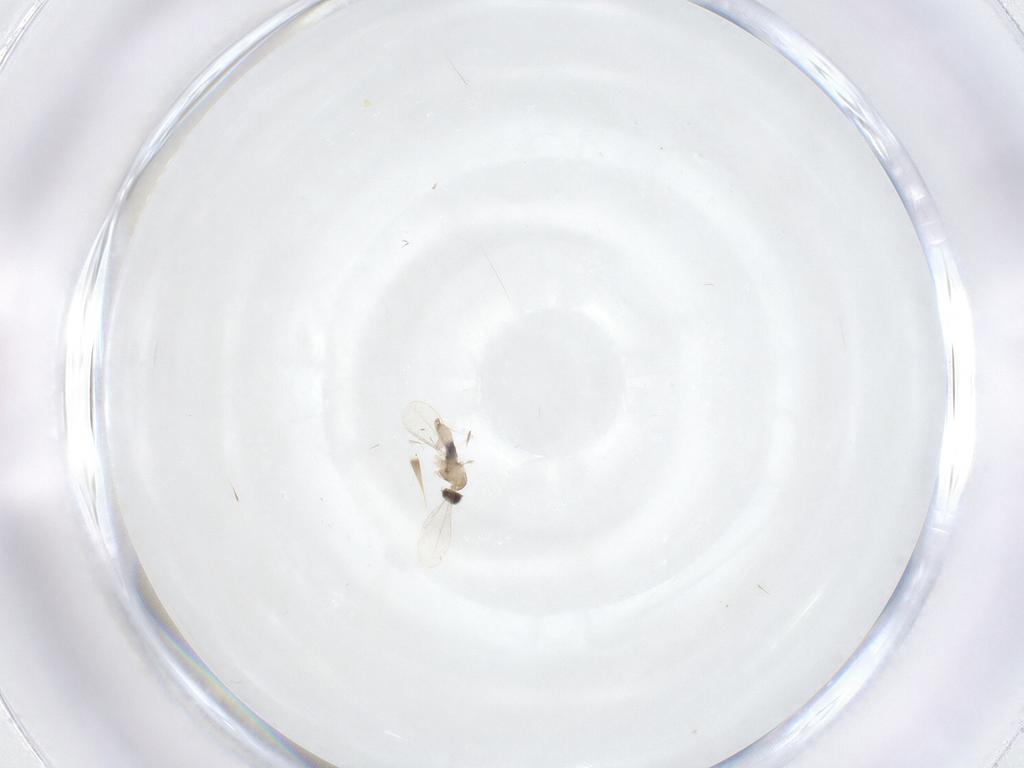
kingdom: Animalia
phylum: Arthropoda
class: Insecta
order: Diptera
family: Cecidomyiidae
